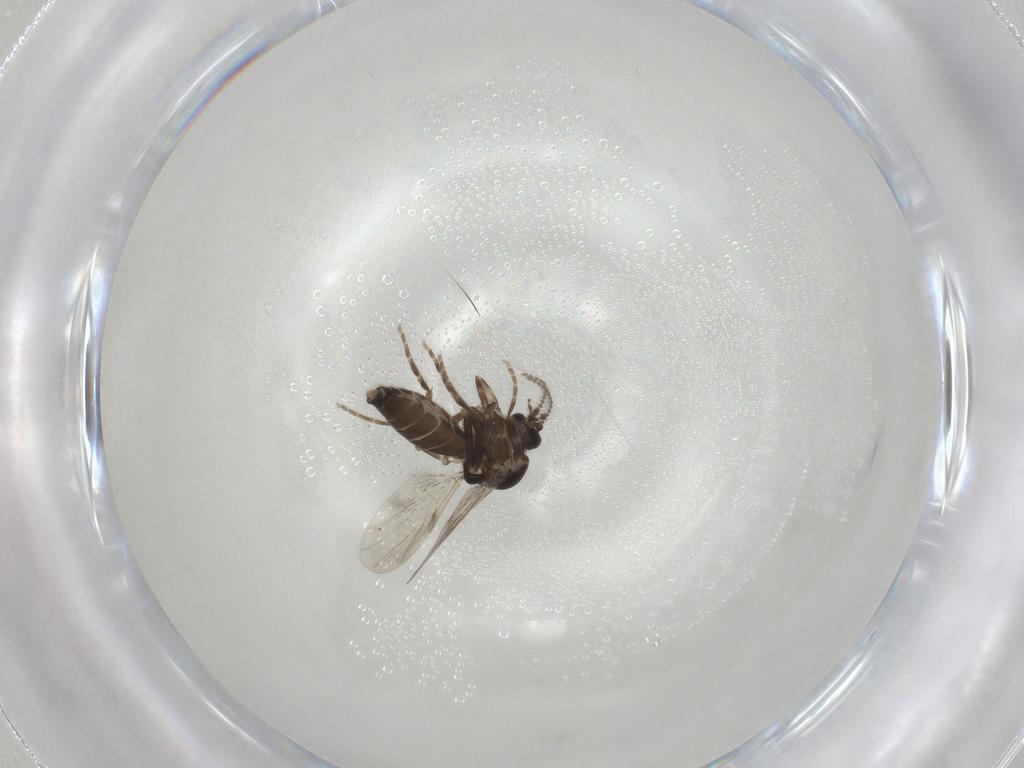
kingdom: Animalia
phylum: Arthropoda
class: Insecta
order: Diptera
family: Ceratopogonidae
